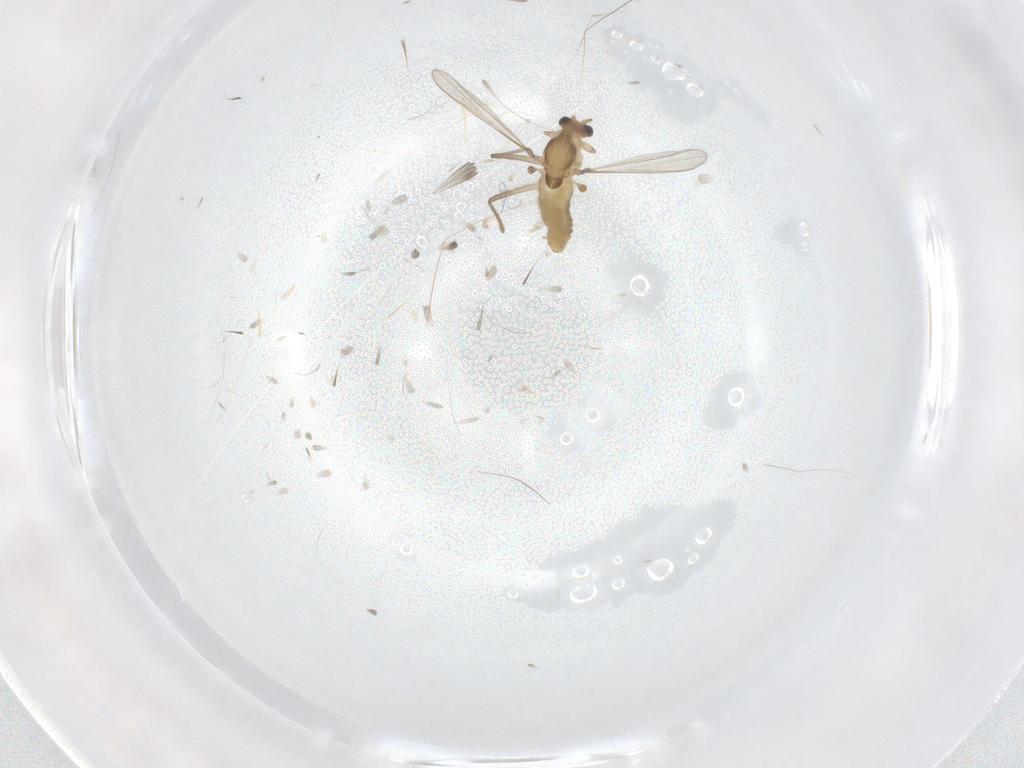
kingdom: Animalia
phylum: Arthropoda
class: Insecta
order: Diptera
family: Chironomidae
